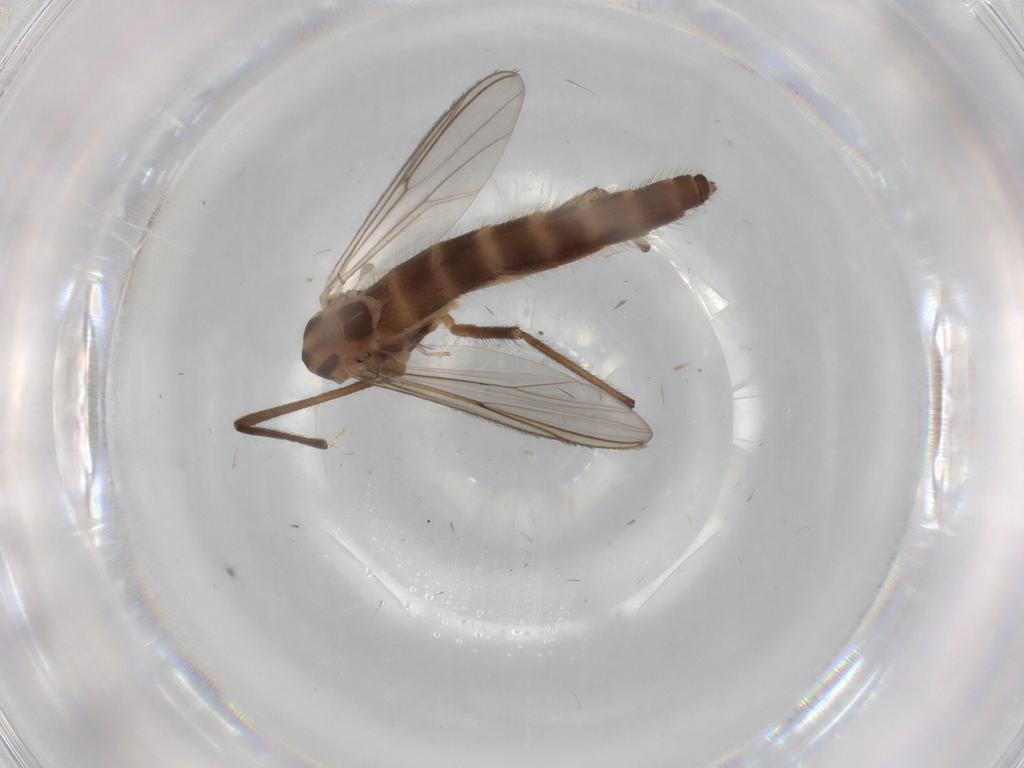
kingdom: Animalia
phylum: Arthropoda
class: Insecta
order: Diptera
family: Chironomidae
